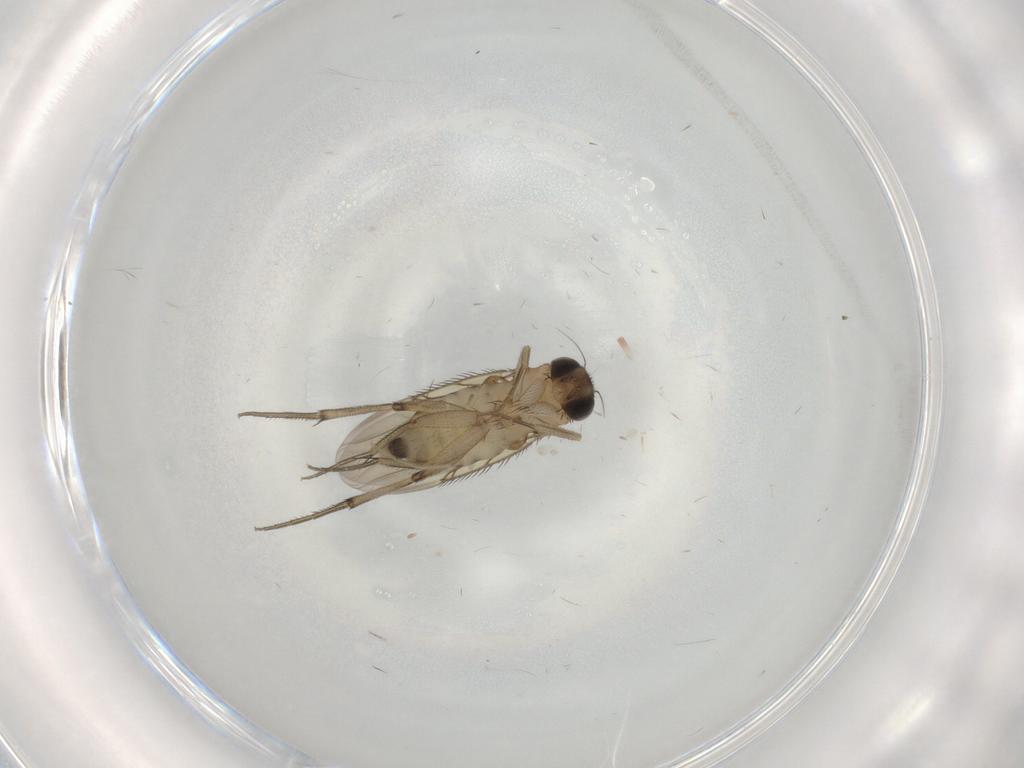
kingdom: Animalia
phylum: Arthropoda
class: Insecta
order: Diptera
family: Phoridae
